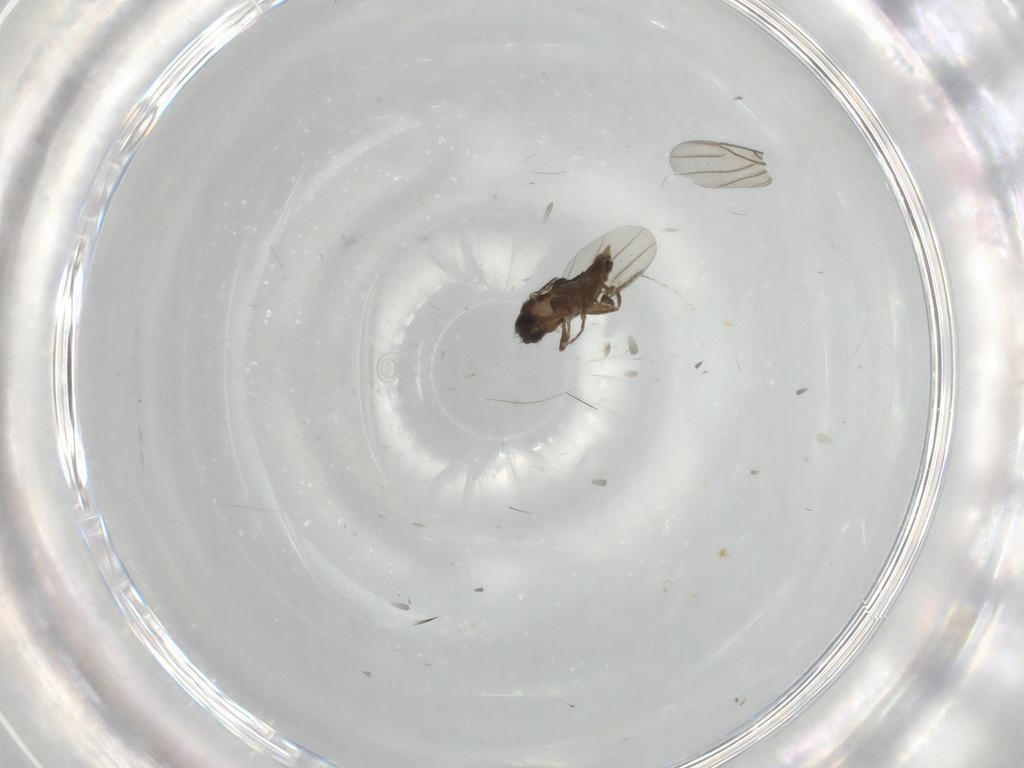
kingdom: Animalia
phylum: Arthropoda
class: Insecta
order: Diptera
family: Phoridae
